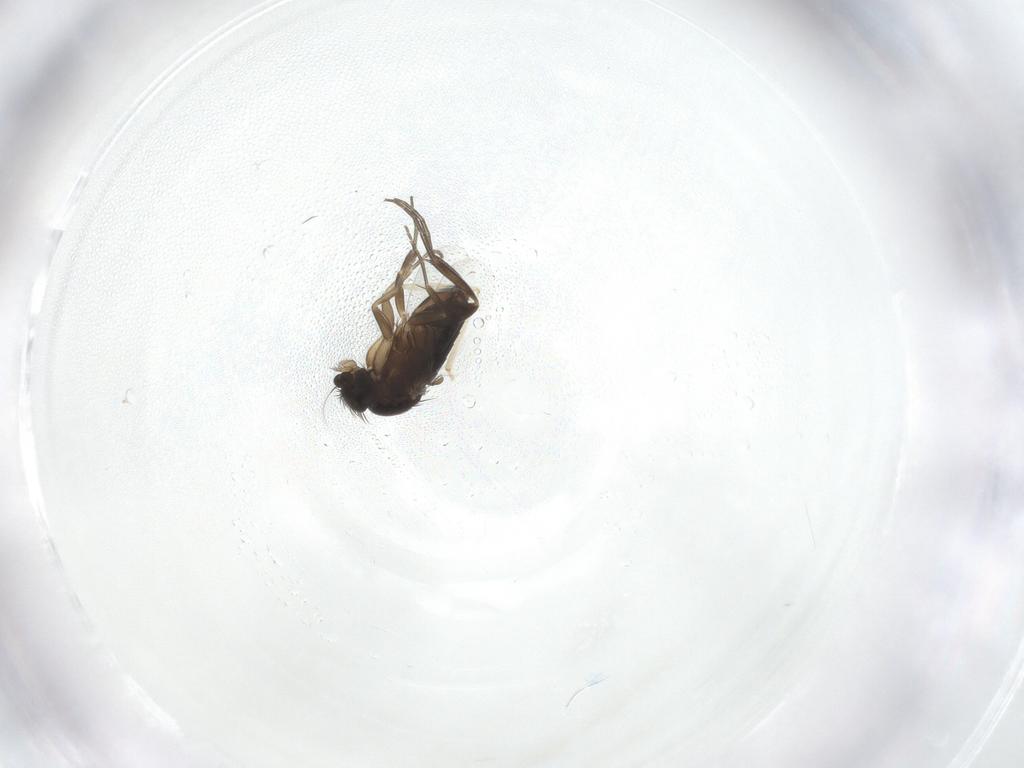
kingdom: Animalia
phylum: Arthropoda
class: Insecta
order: Diptera
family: Phoridae
